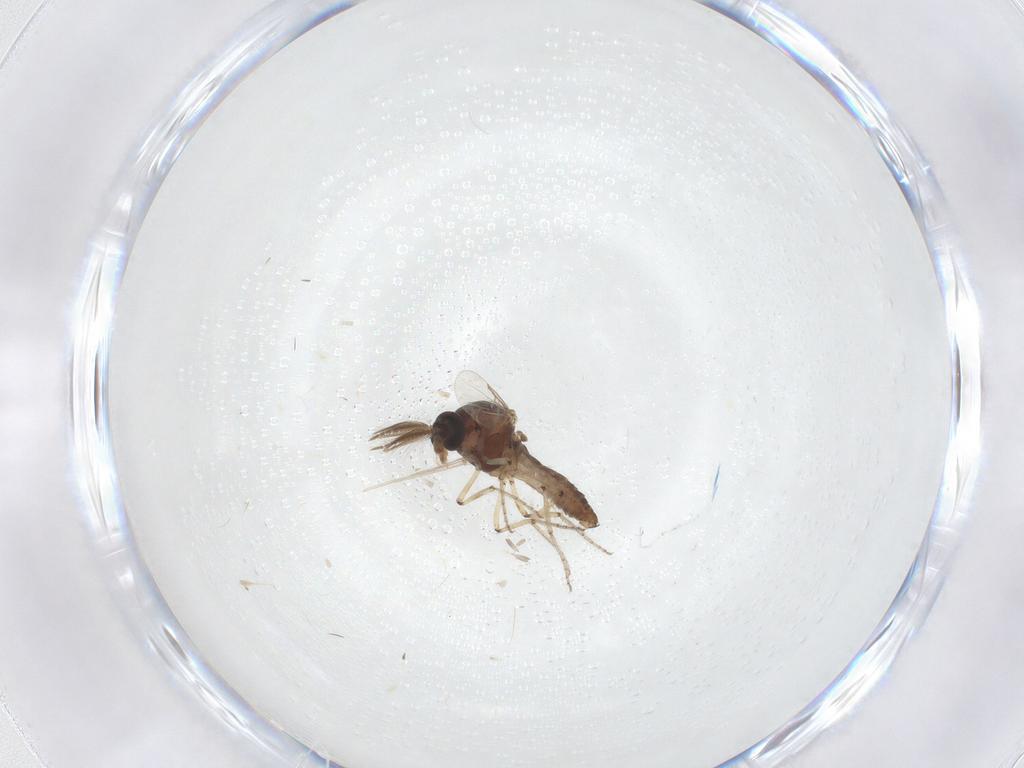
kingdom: Animalia
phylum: Arthropoda
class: Insecta
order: Diptera
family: Ceratopogonidae
